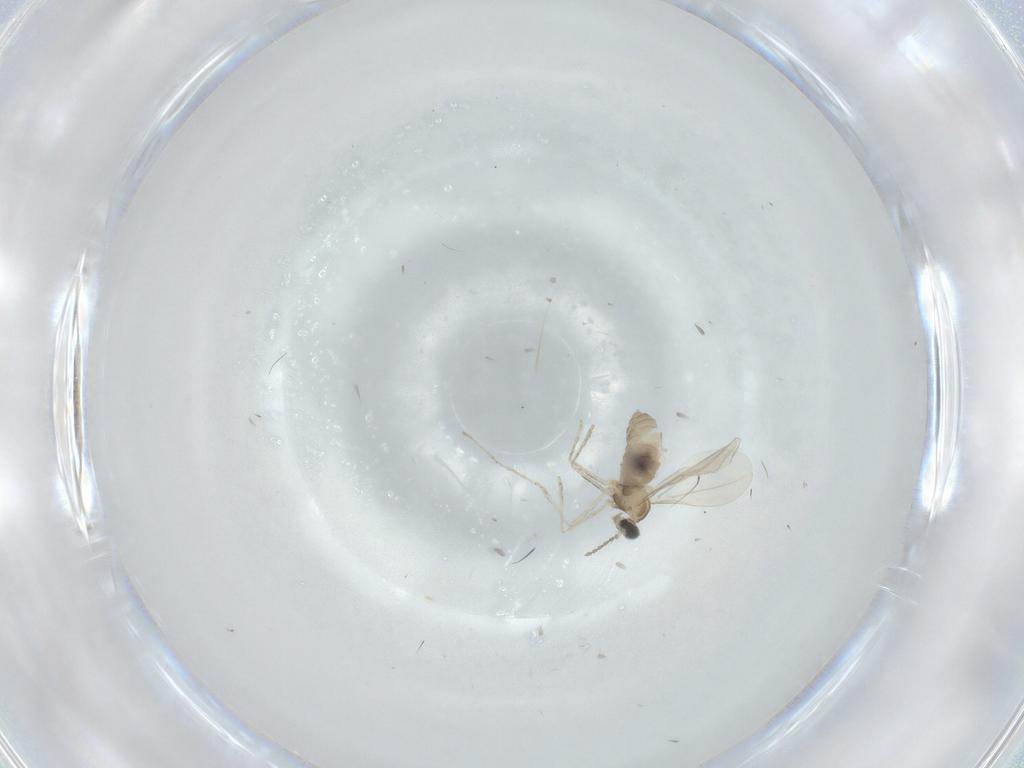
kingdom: Animalia
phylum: Arthropoda
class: Insecta
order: Diptera
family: Cecidomyiidae
